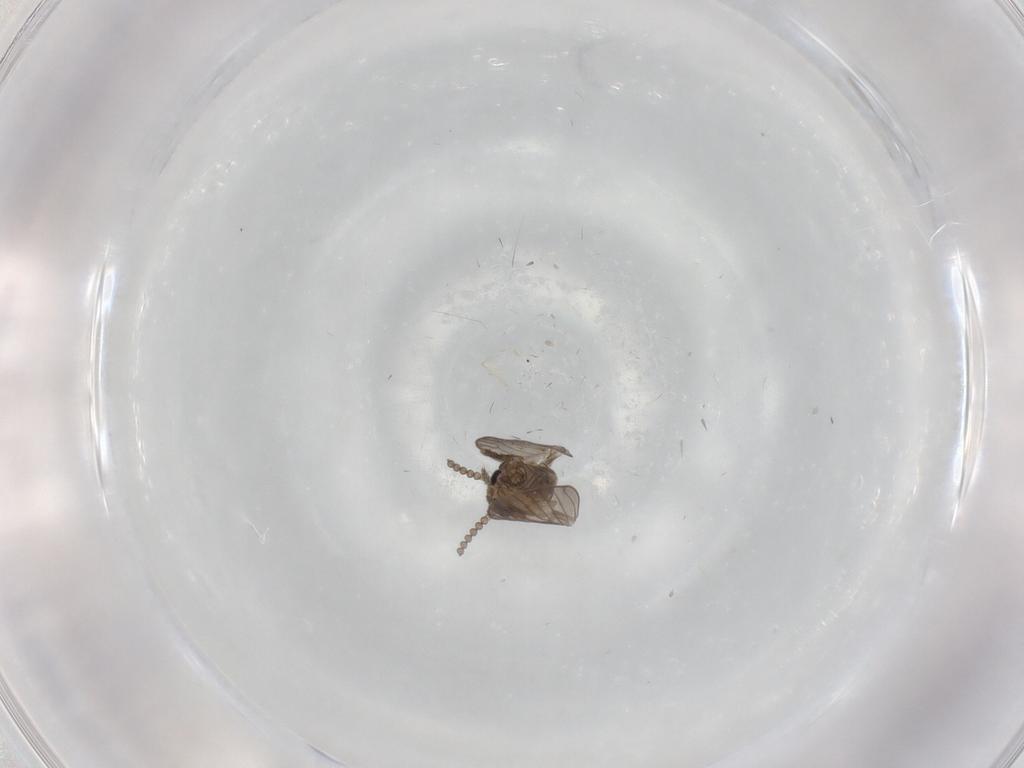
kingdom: Animalia
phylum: Arthropoda
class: Insecta
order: Diptera
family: Psychodidae
